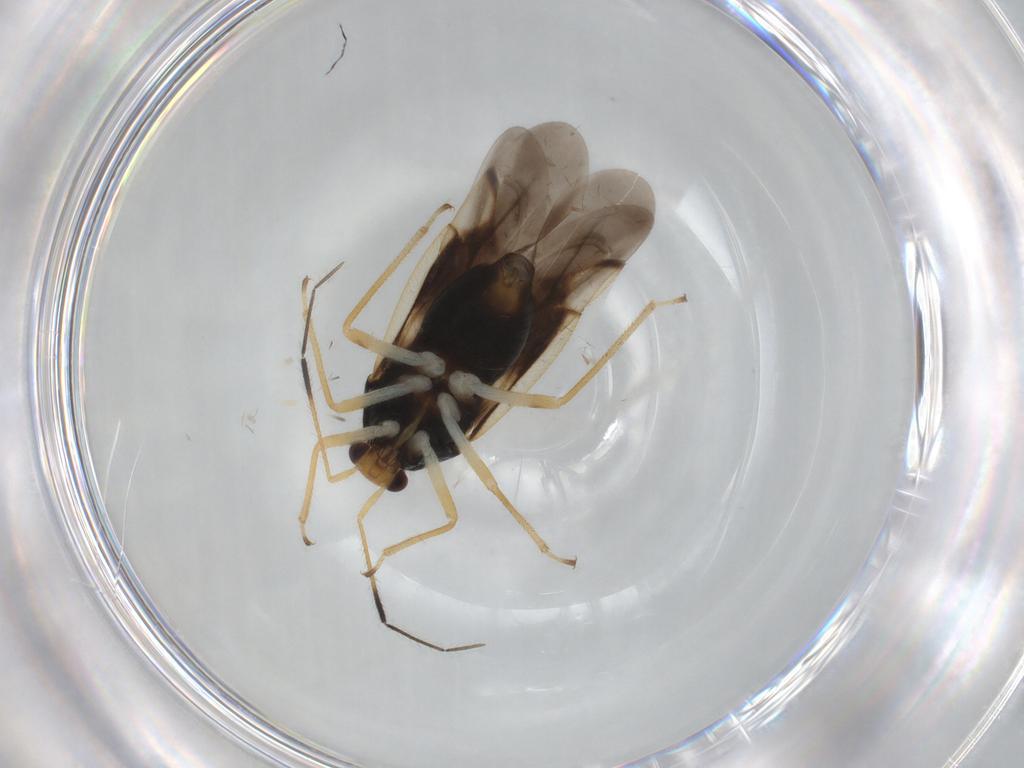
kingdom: Animalia
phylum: Arthropoda
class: Insecta
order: Hemiptera
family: Miridae
